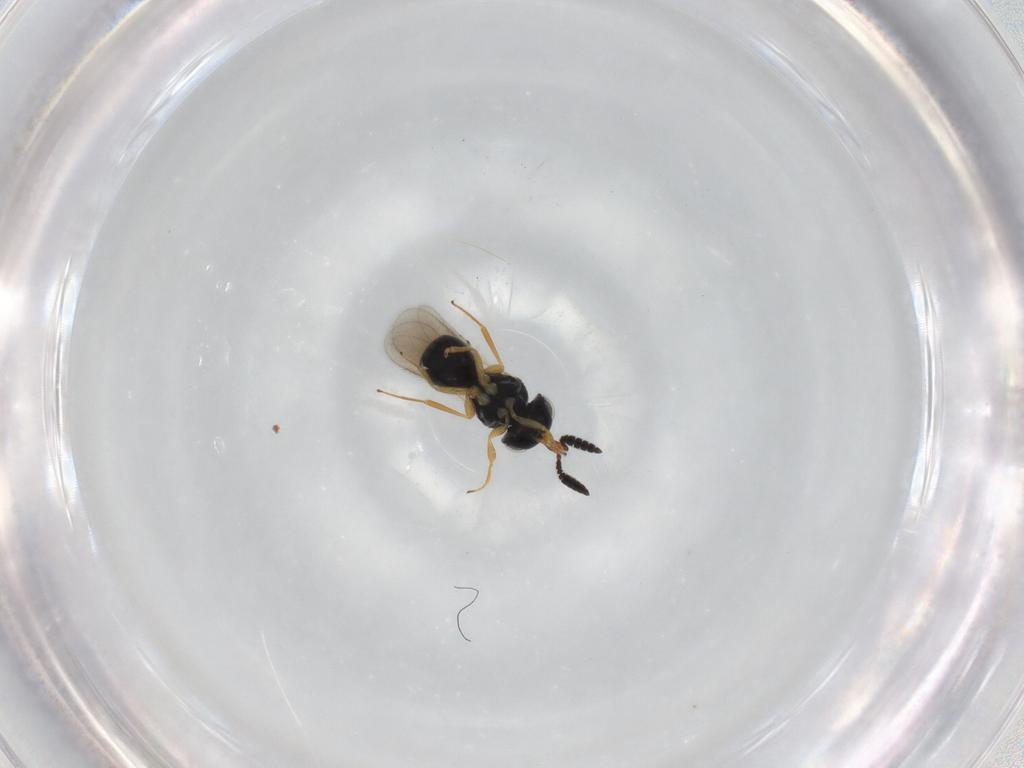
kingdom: Animalia
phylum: Arthropoda
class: Insecta
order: Hymenoptera
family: Scelionidae
